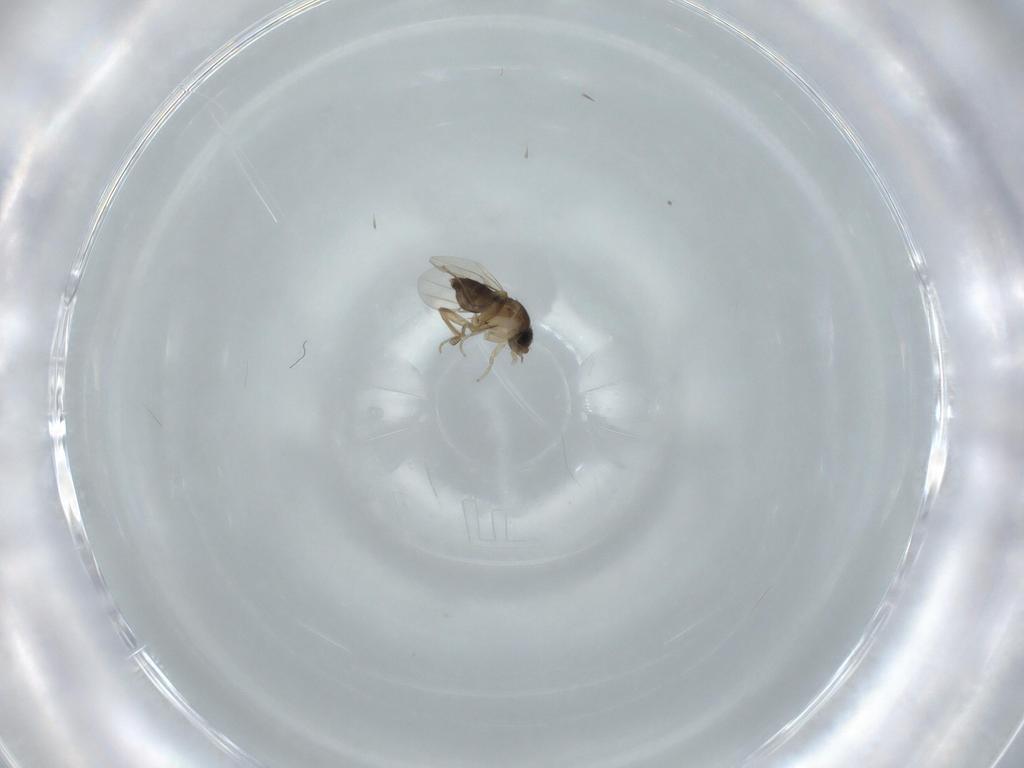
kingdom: Animalia
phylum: Arthropoda
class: Insecta
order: Diptera
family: Phoridae
